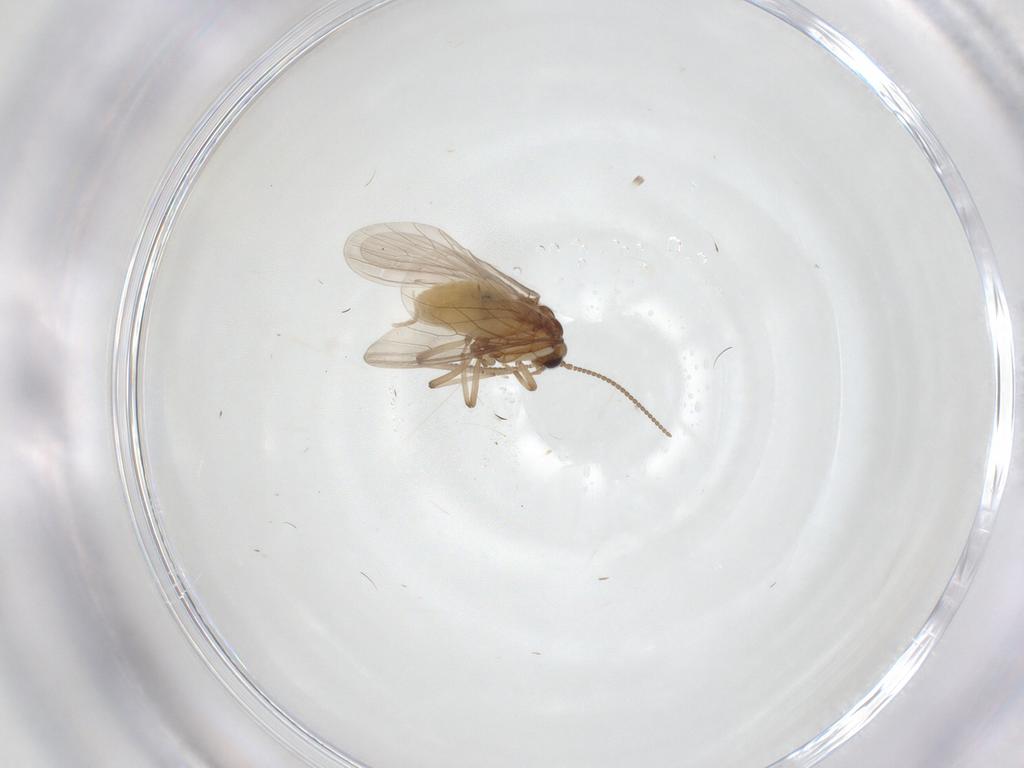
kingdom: Animalia
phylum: Arthropoda
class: Insecta
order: Neuroptera
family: Coniopterygidae
